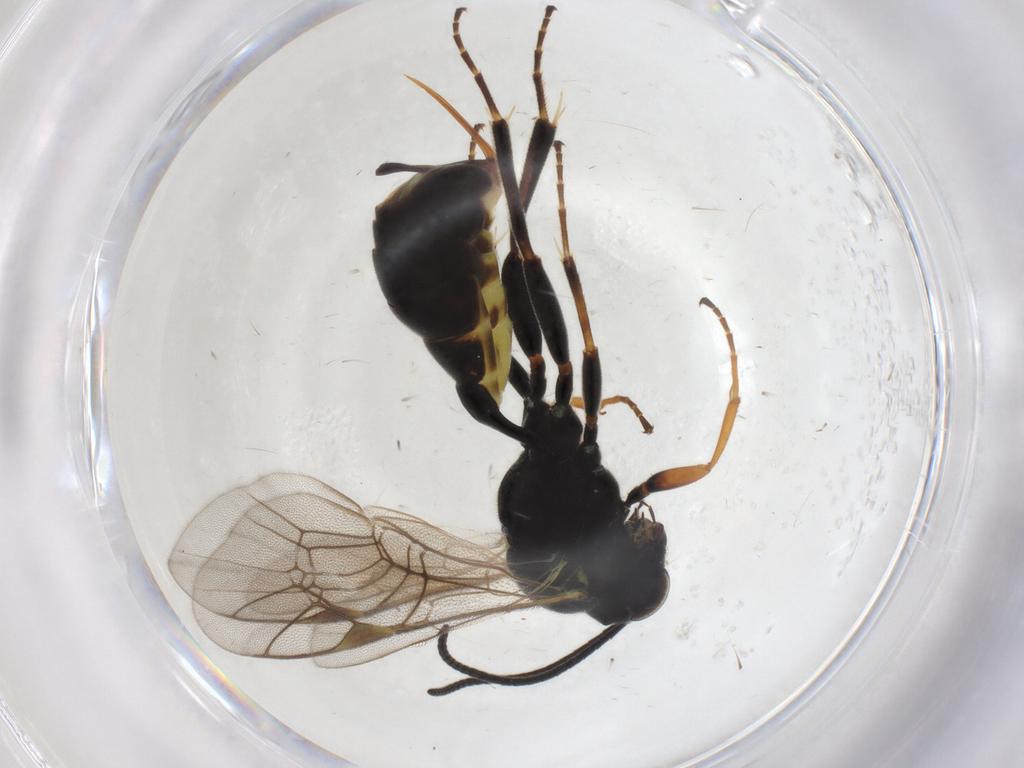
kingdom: Animalia
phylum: Arthropoda
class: Insecta
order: Hymenoptera
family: Ichneumonidae
